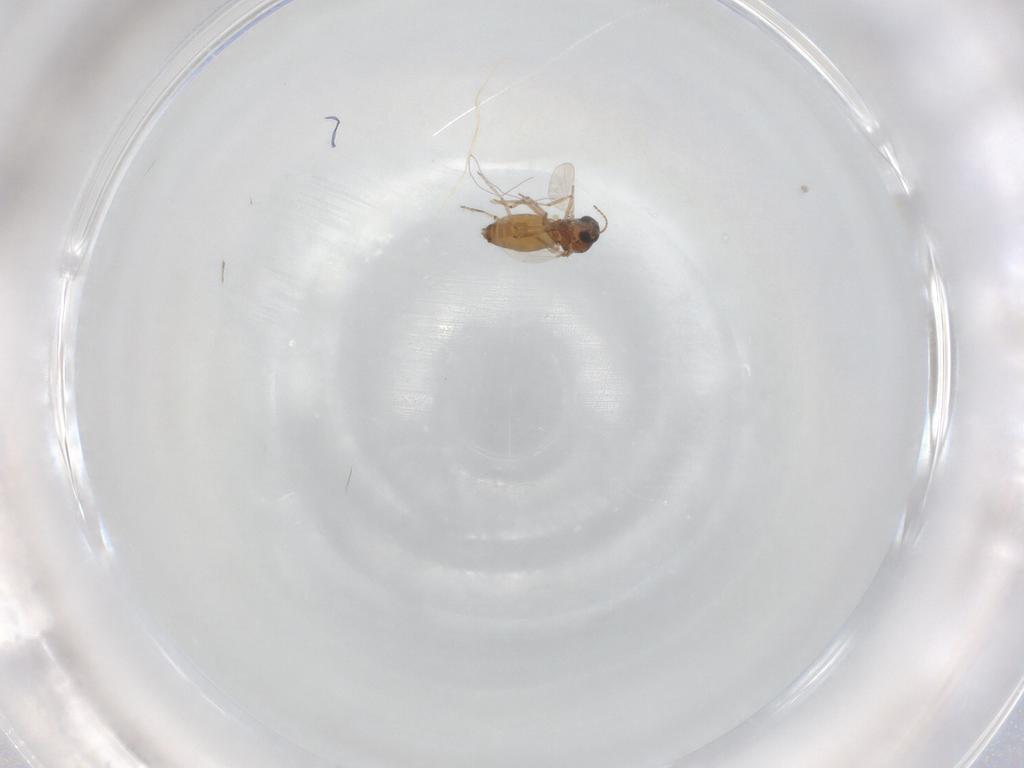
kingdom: Animalia
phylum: Arthropoda
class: Insecta
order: Diptera
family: Ceratopogonidae
